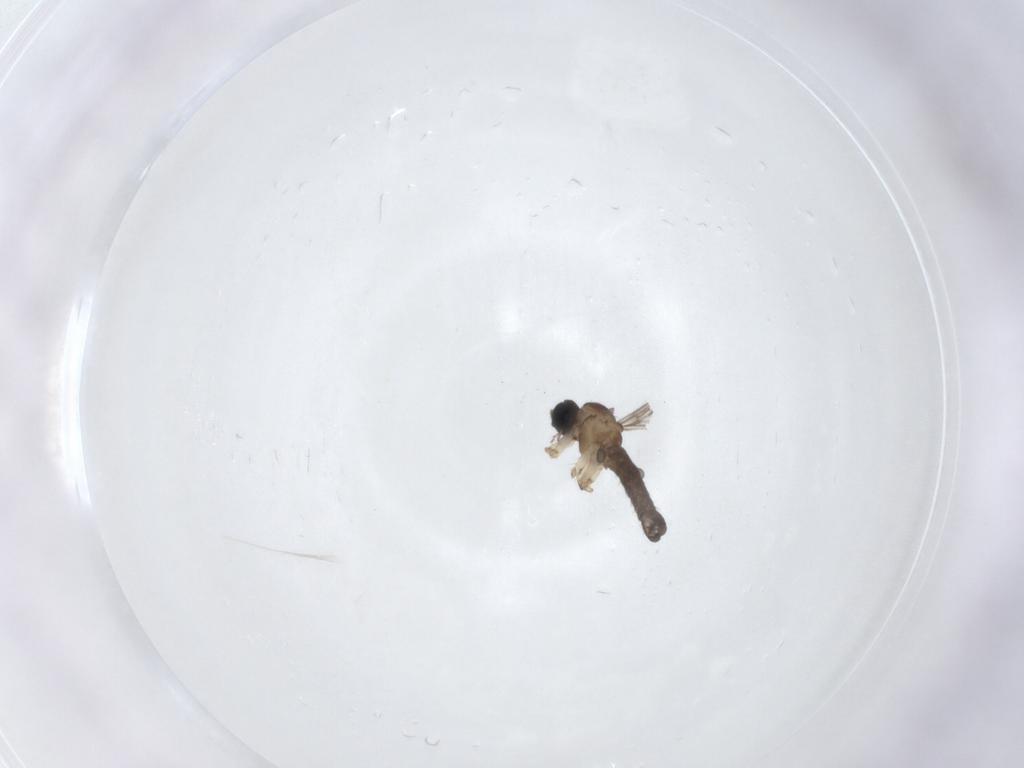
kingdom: Animalia
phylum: Arthropoda
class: Insecta
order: Diptera
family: Sciaridae
